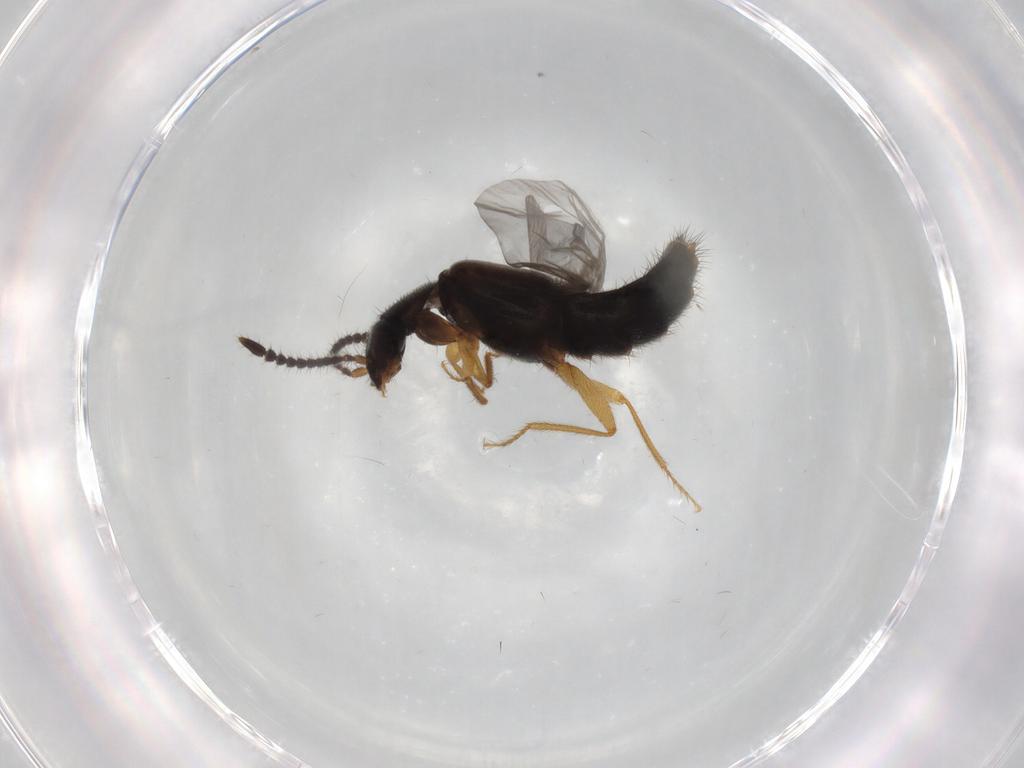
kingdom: Animalia
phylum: Arthropoda
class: Insecta
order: Coleoptera
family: Staphylinidae
